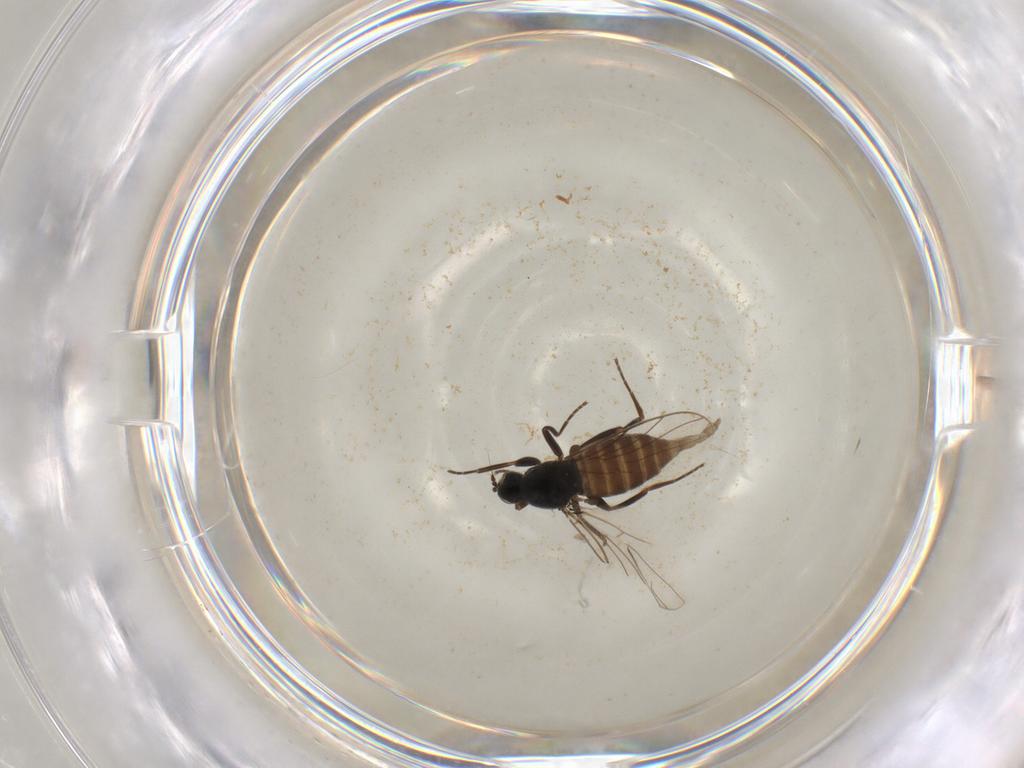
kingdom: Animalia
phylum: Arthropoda
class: Insecta
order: Diptera
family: Hybotidae
